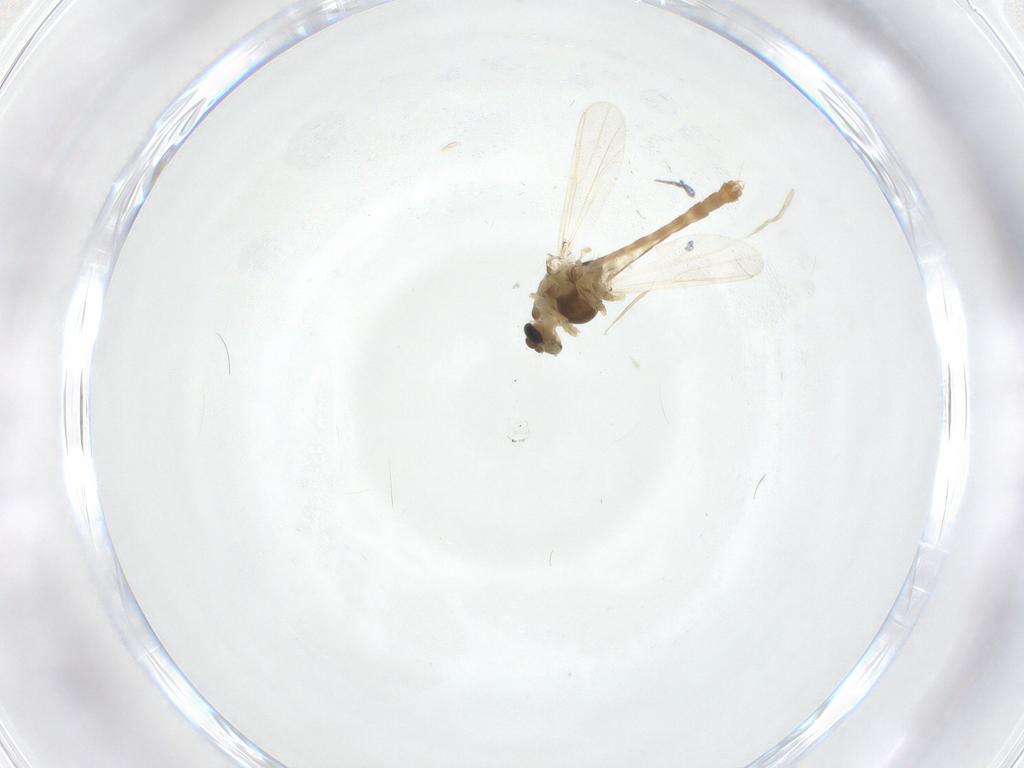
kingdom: Animalia
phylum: Arthropoda
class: Insecta
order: Diptera
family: Chironomidae
